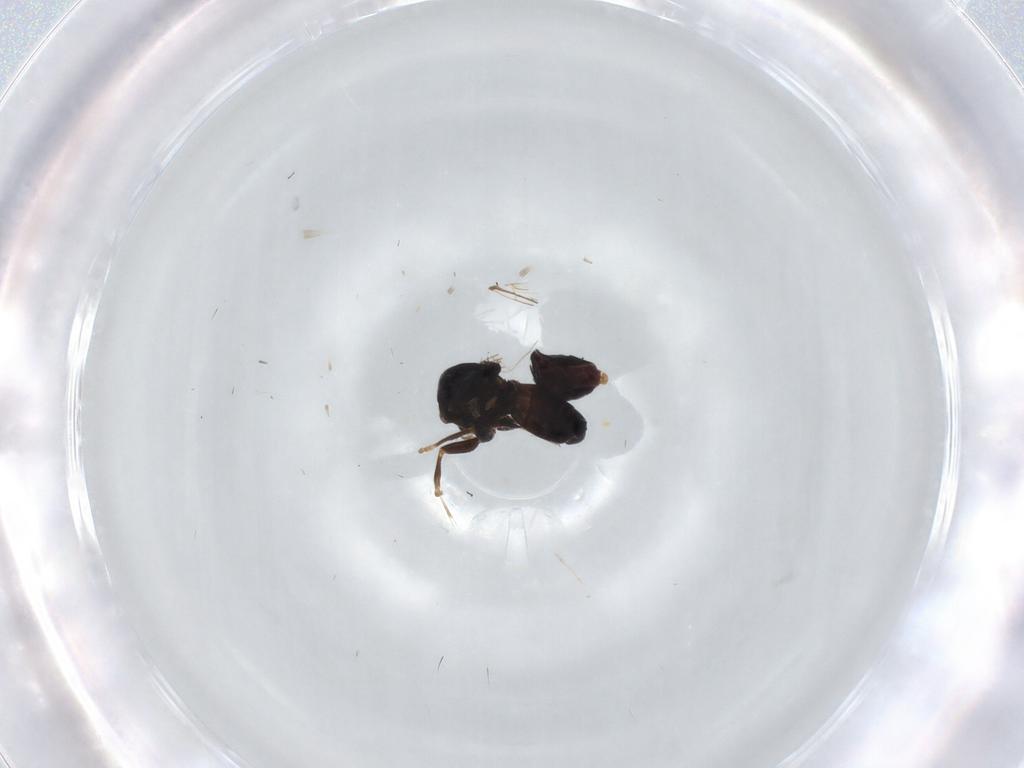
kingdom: Animalia
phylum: Arthropoda
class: Insecta
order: Diptera
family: Pipunculidae
